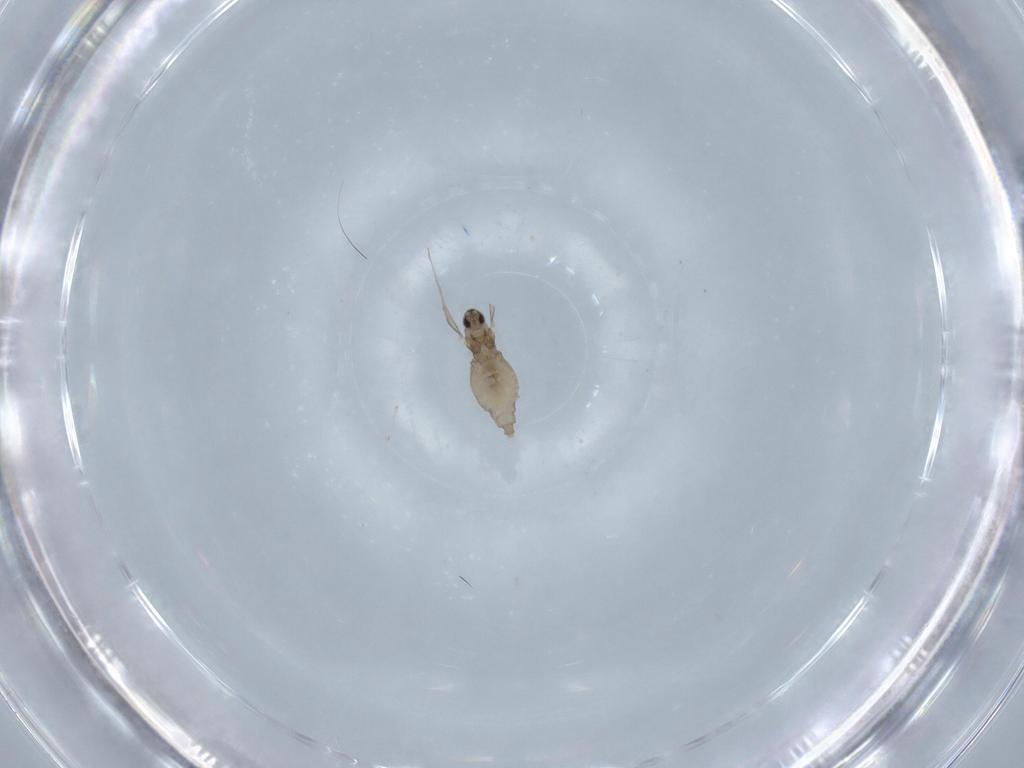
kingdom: Animalia
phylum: Arthropoda
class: Insecta
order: Diptera
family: Cecidomyiidae
